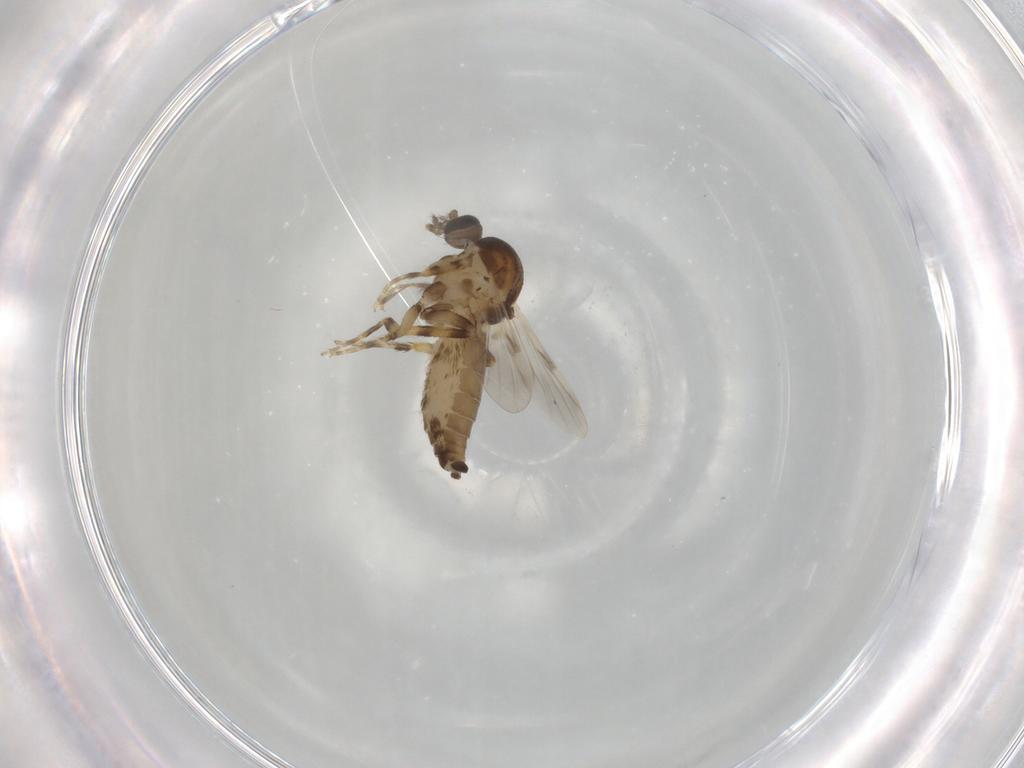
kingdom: Animalia
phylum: Arthropoda
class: Insecta
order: Diptera
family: Ceratopogonidae
